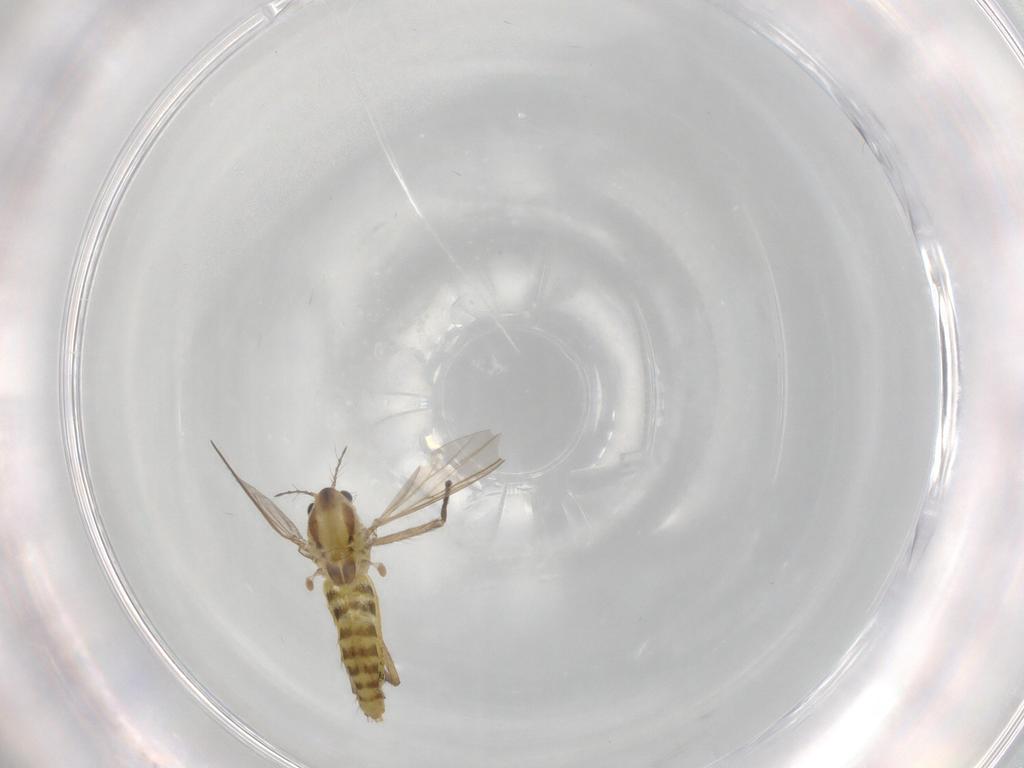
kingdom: Animalia
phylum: Arthropoda
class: Insecta
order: Diptera
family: Chironomidae
